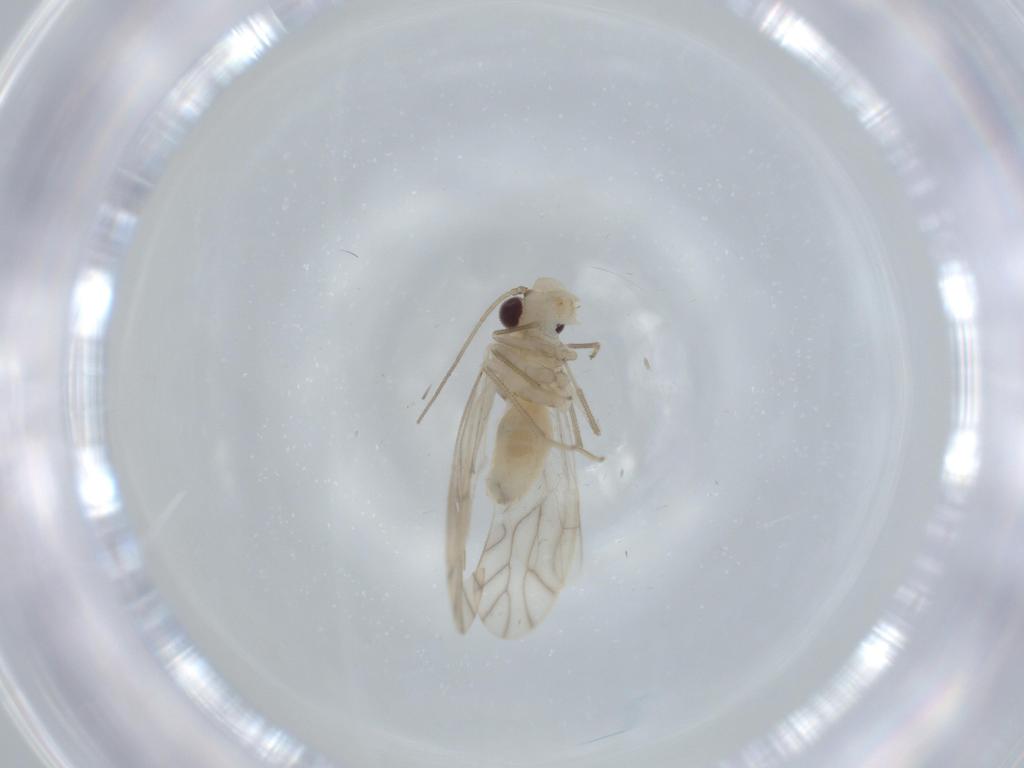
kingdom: Animalia
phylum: Arthropoda
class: Insecta
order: Psocodea
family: Caeciliusidae
